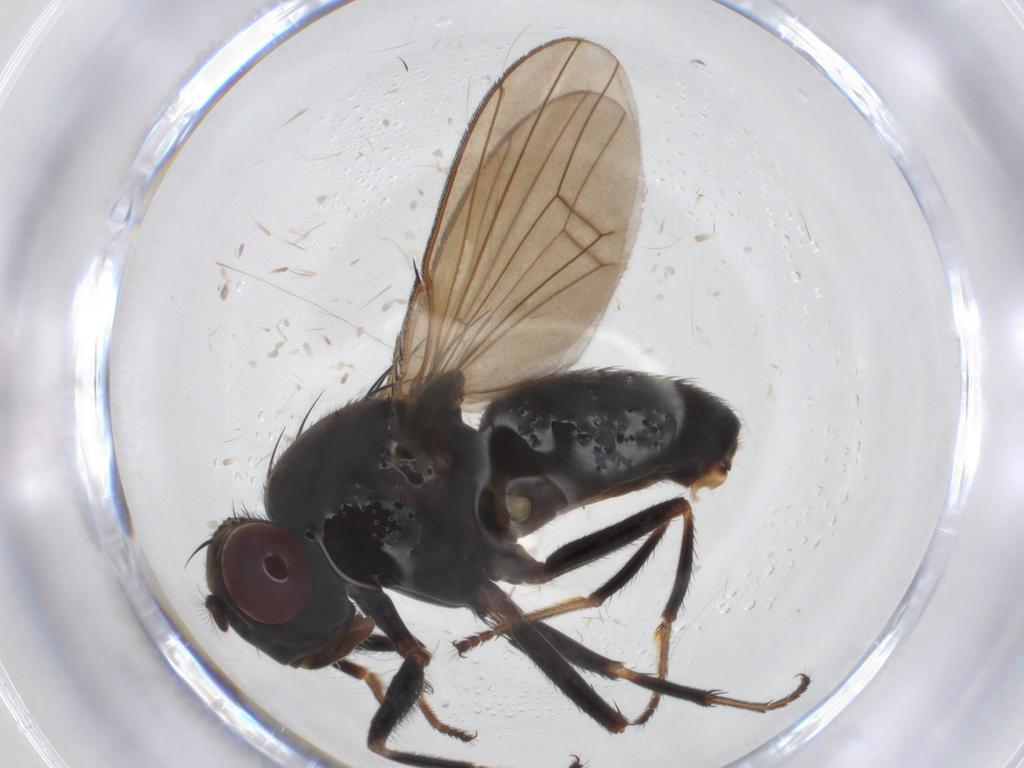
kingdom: Animalia
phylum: Arthropoda
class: Insecta
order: Diptera
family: Ephydridae
